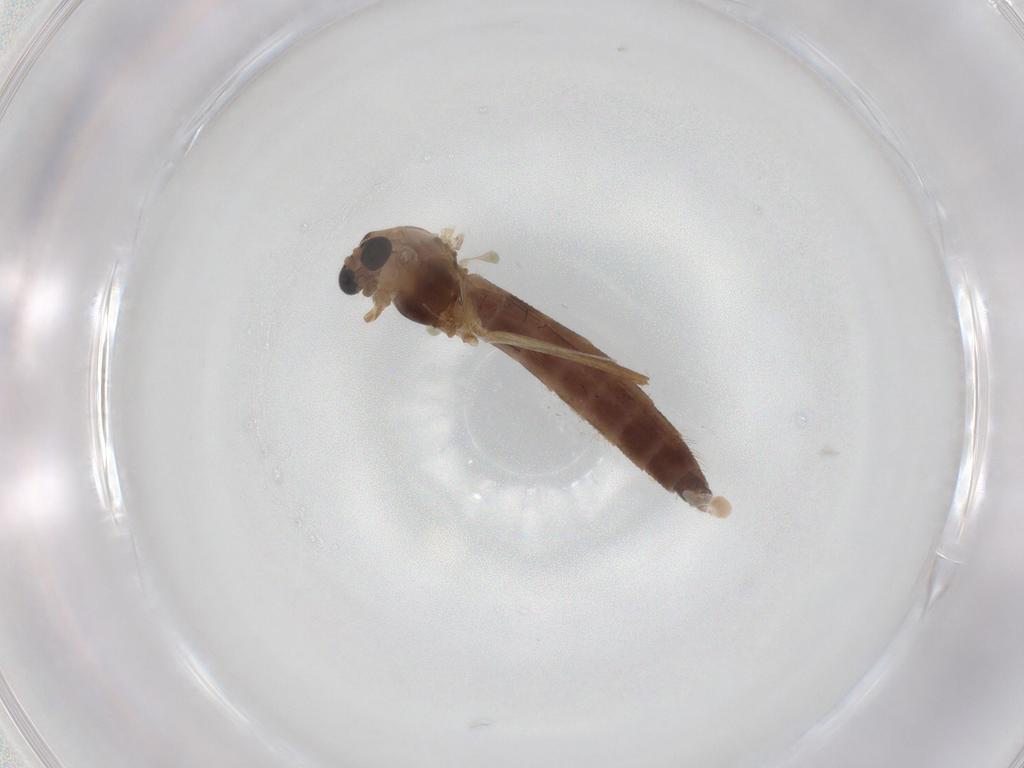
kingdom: Animalia
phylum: Arthropoda
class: Insecta
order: Diptera
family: Chironomidae
